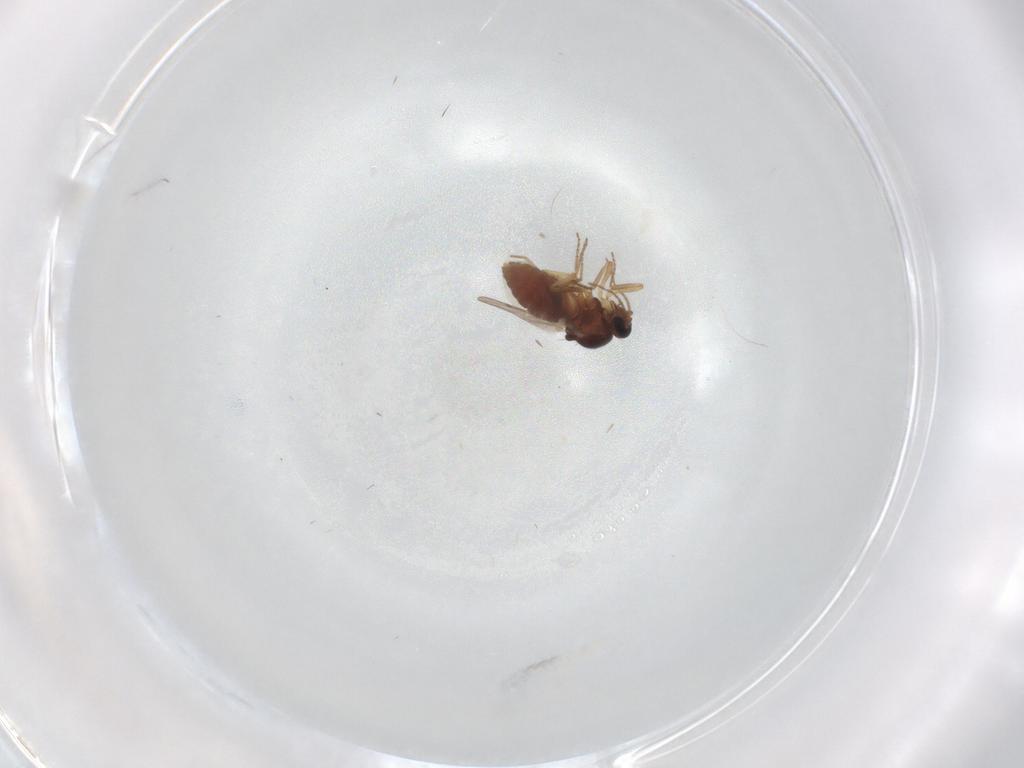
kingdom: Animalia
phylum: Arthropoda
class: Insecta
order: Diptera
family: Ceratopogonidae
